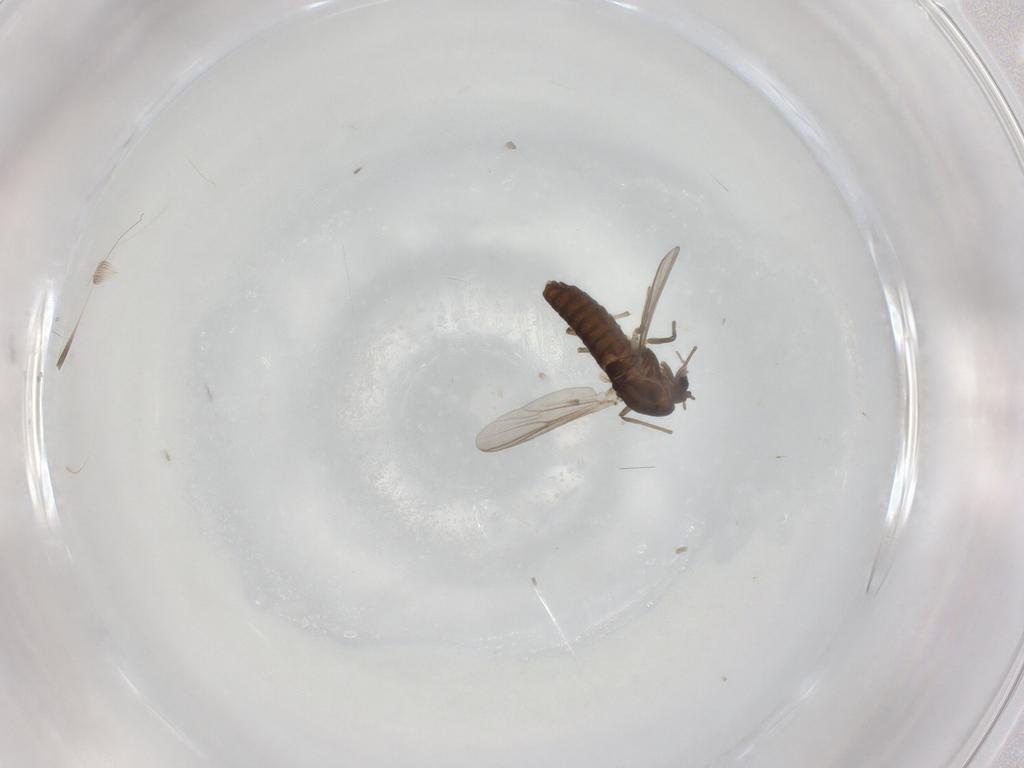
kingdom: Animalia
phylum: Arthropoda
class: Insecta
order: Diptera
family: Chironomidae
